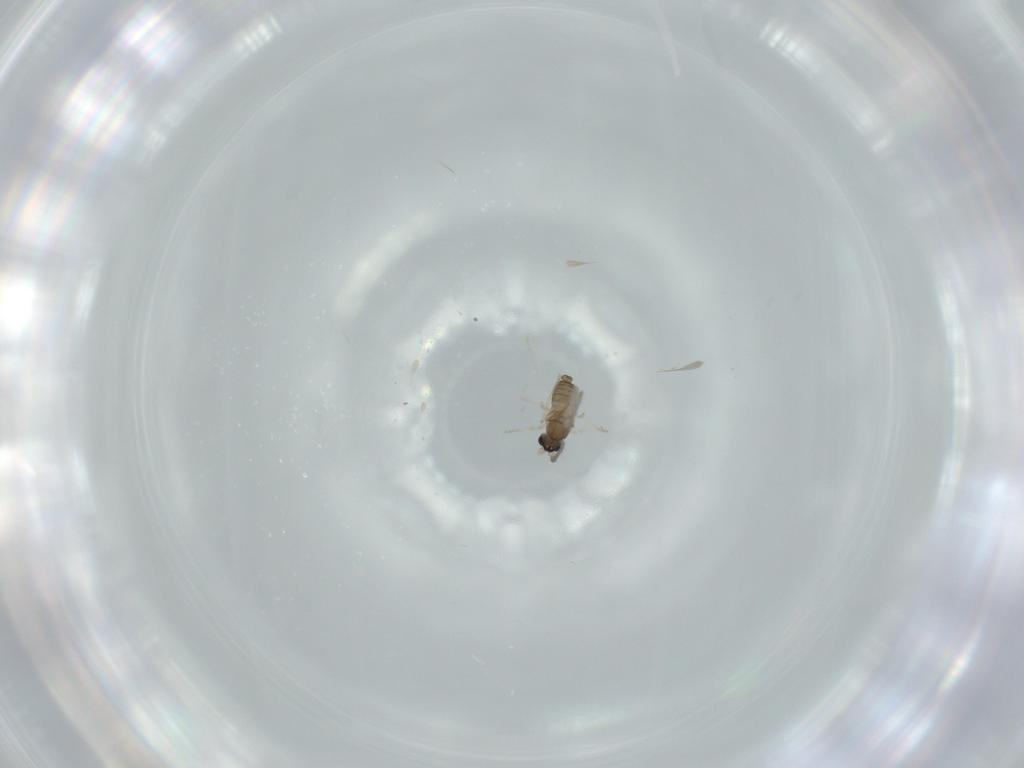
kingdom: Animalia
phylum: Arthropoda
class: Insecta
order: Diptera
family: Cecidomyiidae
